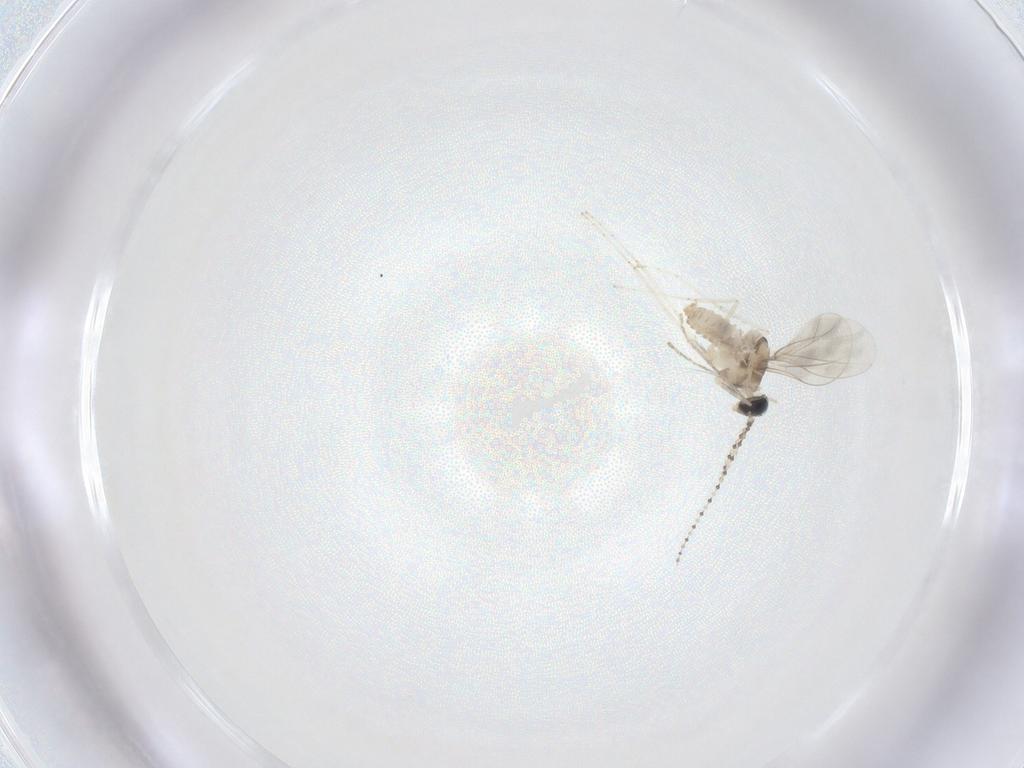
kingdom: Animalia
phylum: Arthropoda
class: Insecta
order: Diptera
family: Cecidomyiidae
